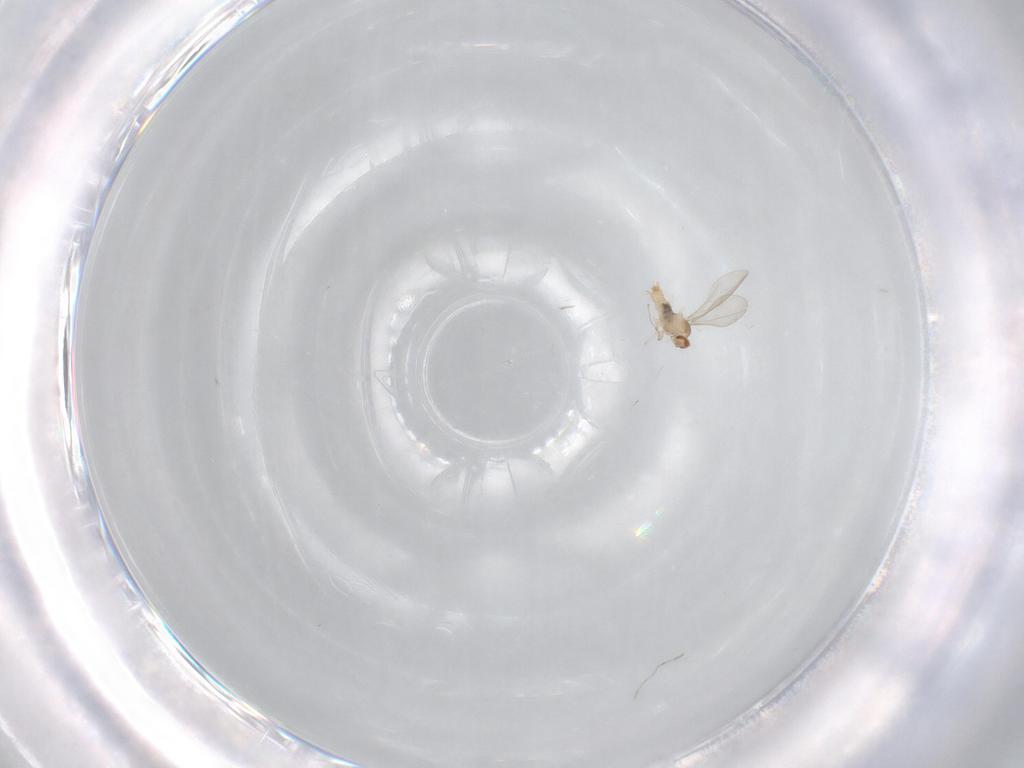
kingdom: Animalia
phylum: Arthropoda
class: Insecta
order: Diptera
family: Cecidomyiidae
